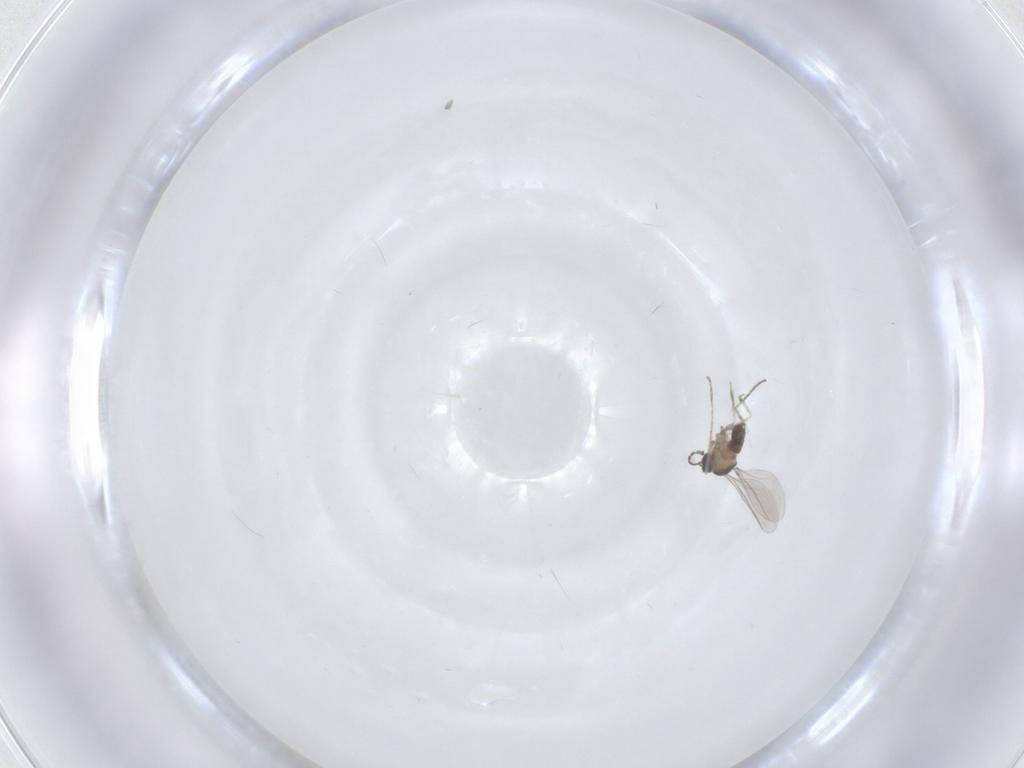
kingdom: Animalia
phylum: Arthropoda
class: Insecta
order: Diptera
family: Cecidomyiidae
